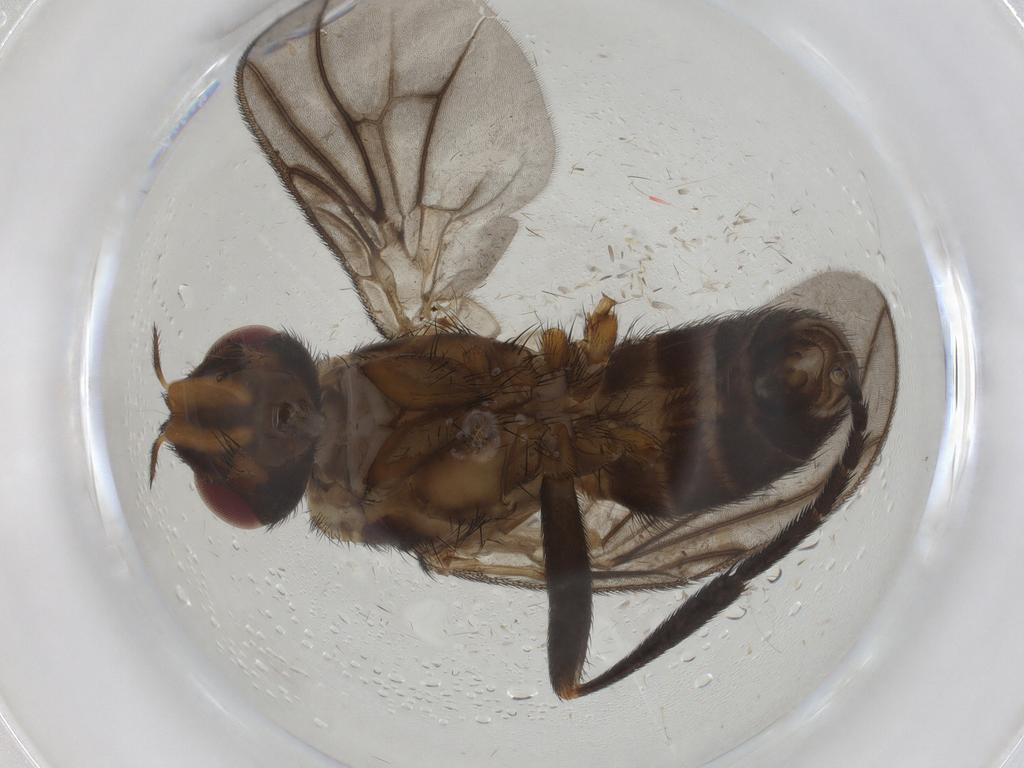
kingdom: Animalia
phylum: Arthropoda
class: Insecta
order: Diptera
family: Calliphoridae
